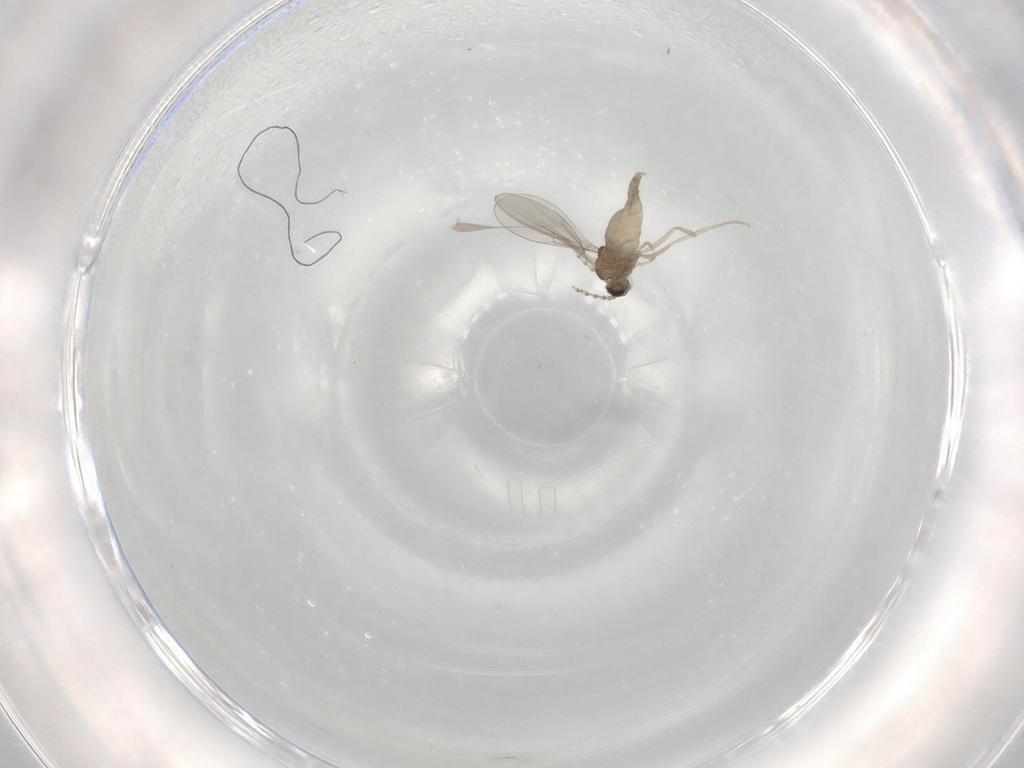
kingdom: Animalia
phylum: Arthropoda
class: Insecta
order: Diptera
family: Cecidomyiidae
